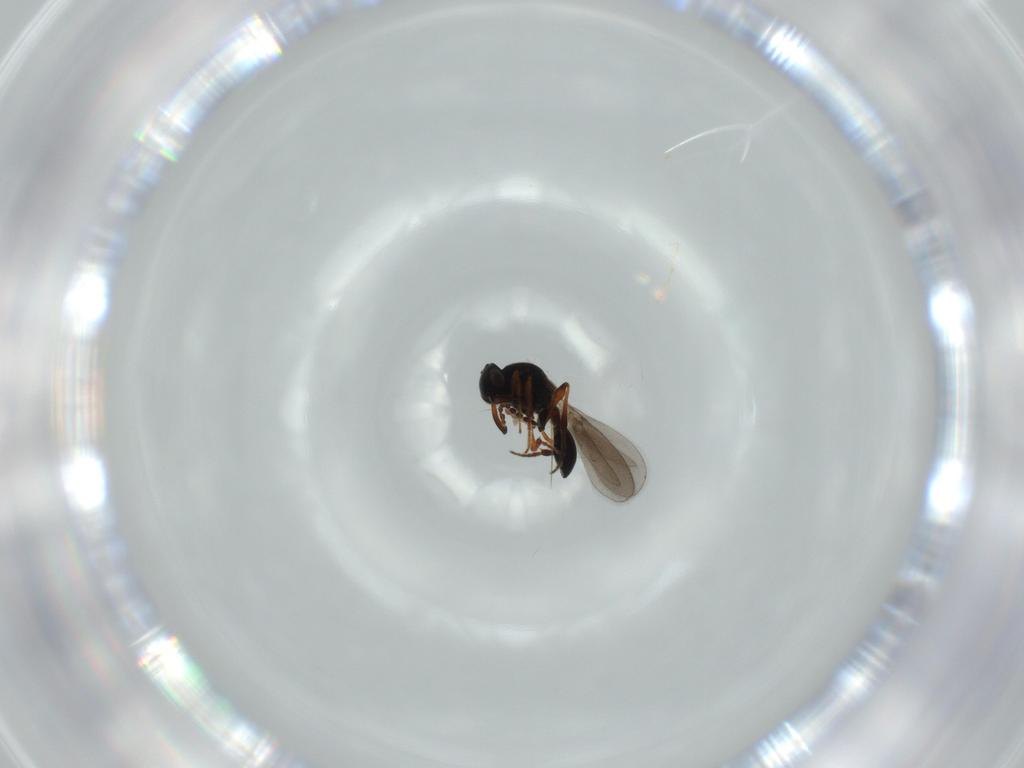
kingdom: Animalia
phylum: Arthropoda
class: Insecta
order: Hymenoptera
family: Platygastridae
